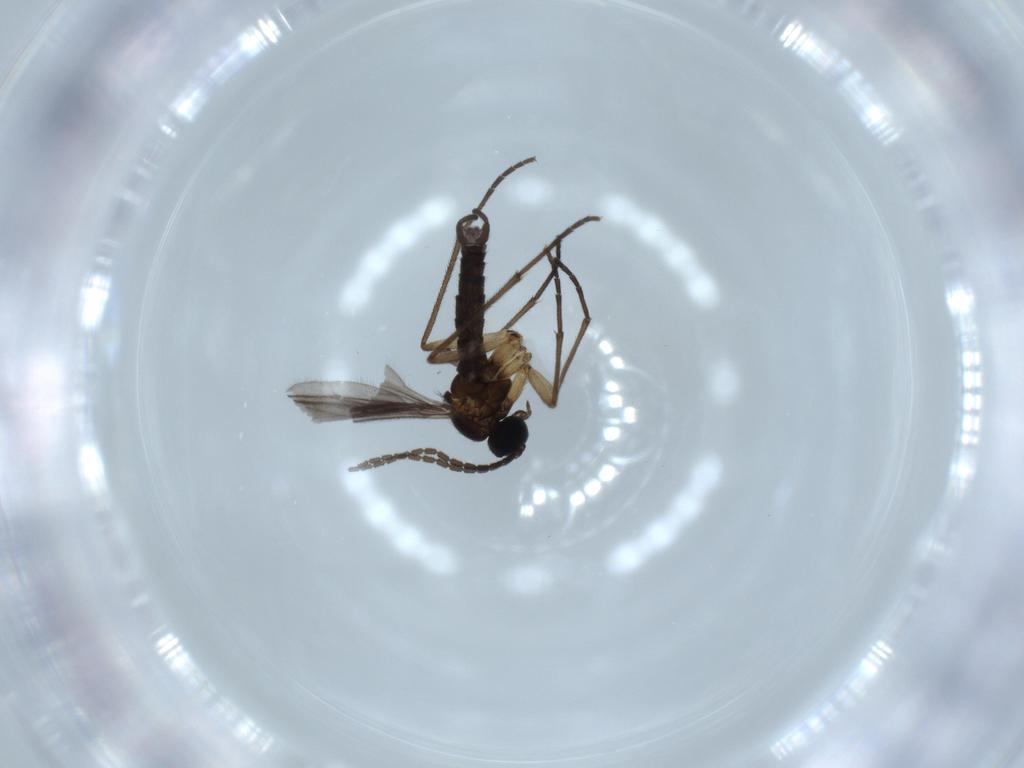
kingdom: Animalia
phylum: Arthropoda
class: Insecta
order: Diptera
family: Sciaridae
